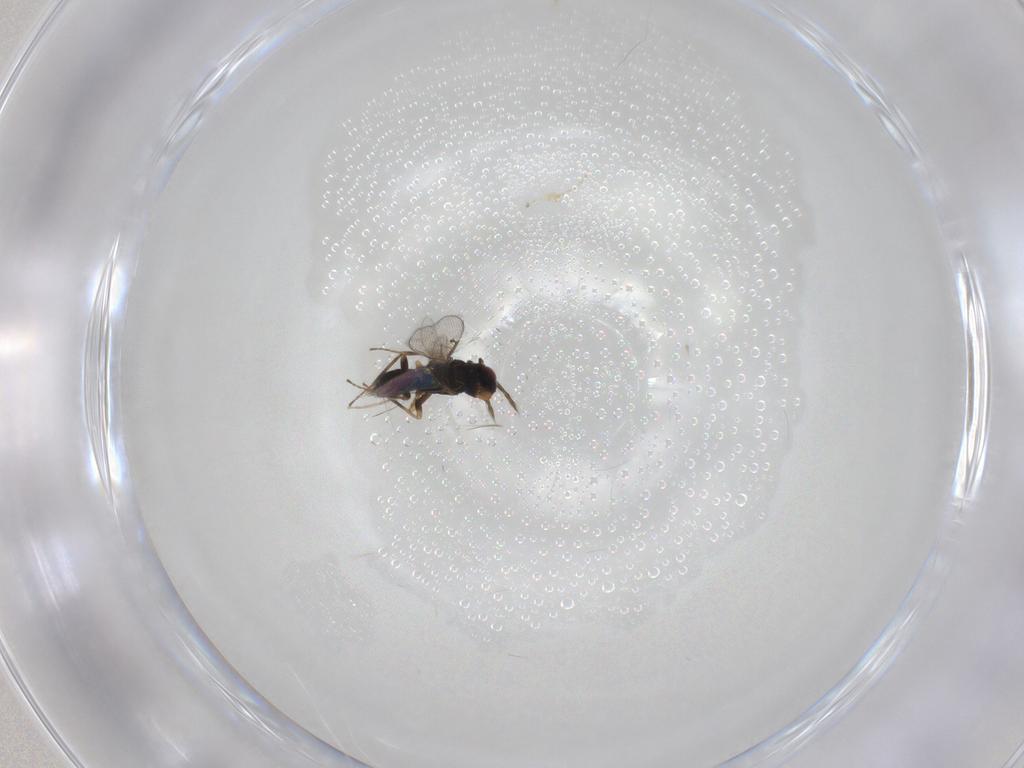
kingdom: Animalia
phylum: Arthropoda
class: Insecta
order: Hymenoptera
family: Eulophidae
